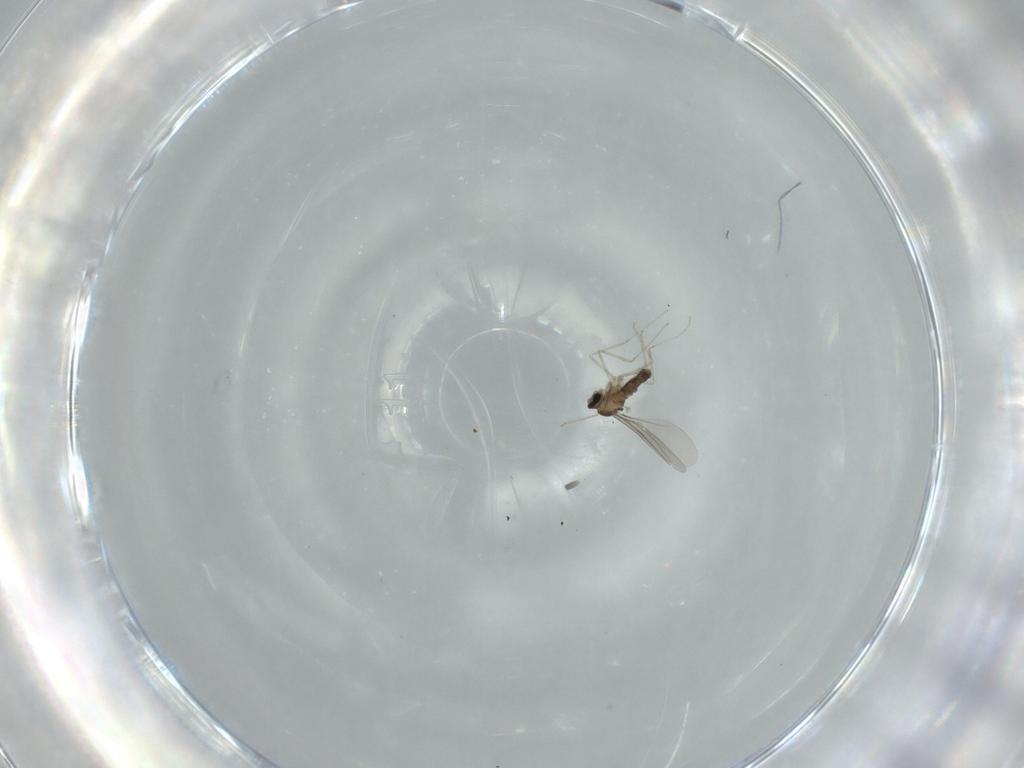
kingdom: Animalia
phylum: Arthropoda
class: Insecta
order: Diptera
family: Cecidomyiidae
